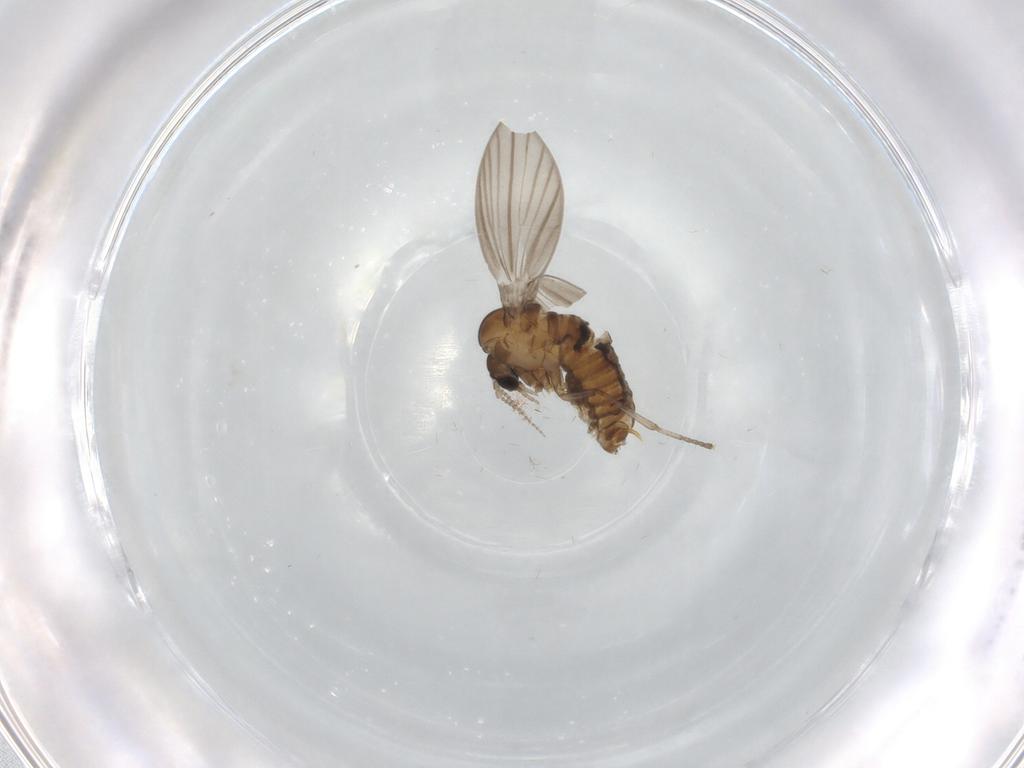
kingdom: Animalia
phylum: Arthropoda
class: Insecta
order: Diptera
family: Psychodidae
